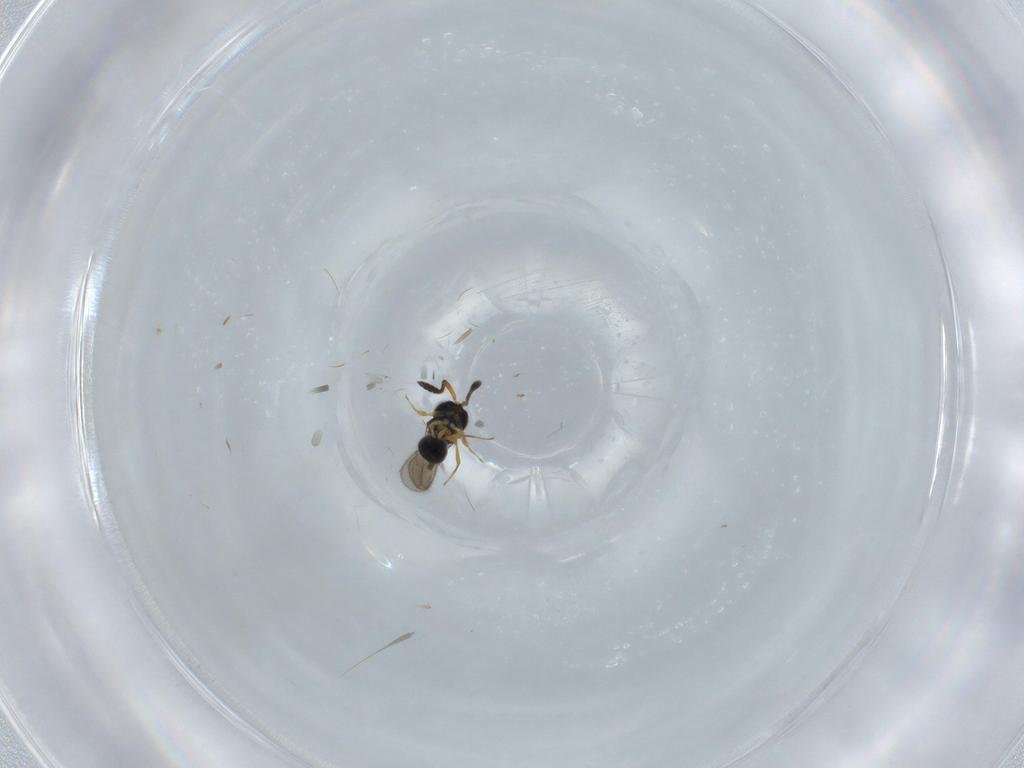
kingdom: Animalia
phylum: Arthropoda
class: Insecta
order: Hymenoptera
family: Scelionidae
